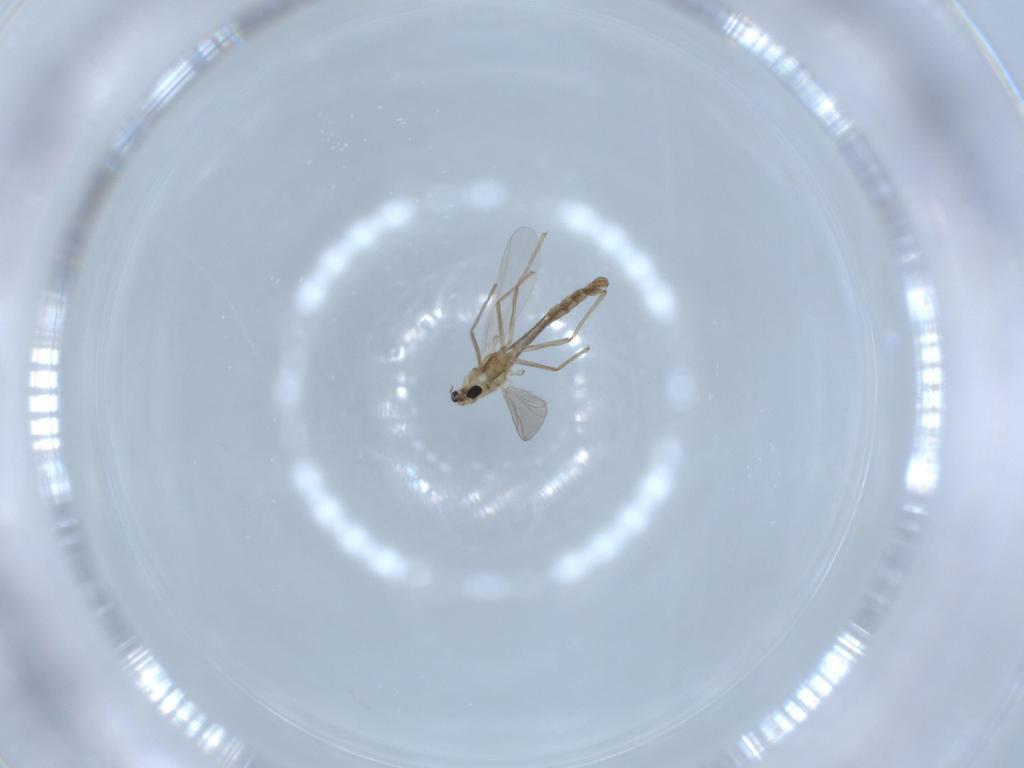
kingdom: Animalia
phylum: Arthropoda
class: Insecta
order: Diptera
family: Chironomidae
